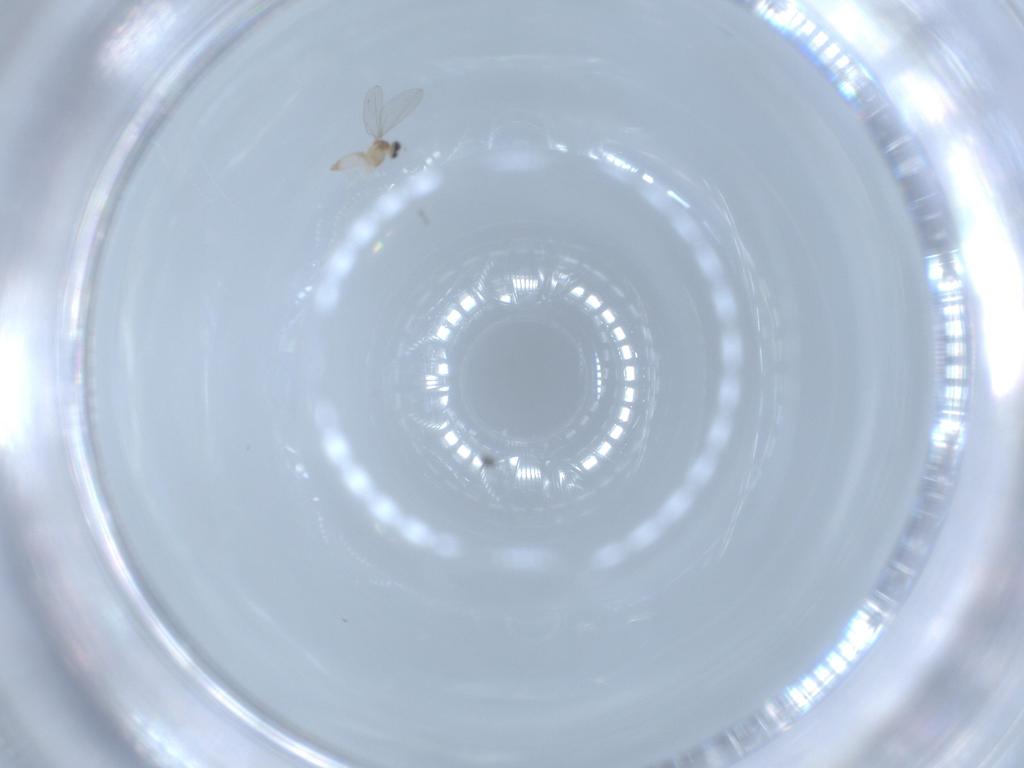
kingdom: Animalia
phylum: Arthropoda
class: Insecta
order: Diptera
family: Cecidomyiidae
